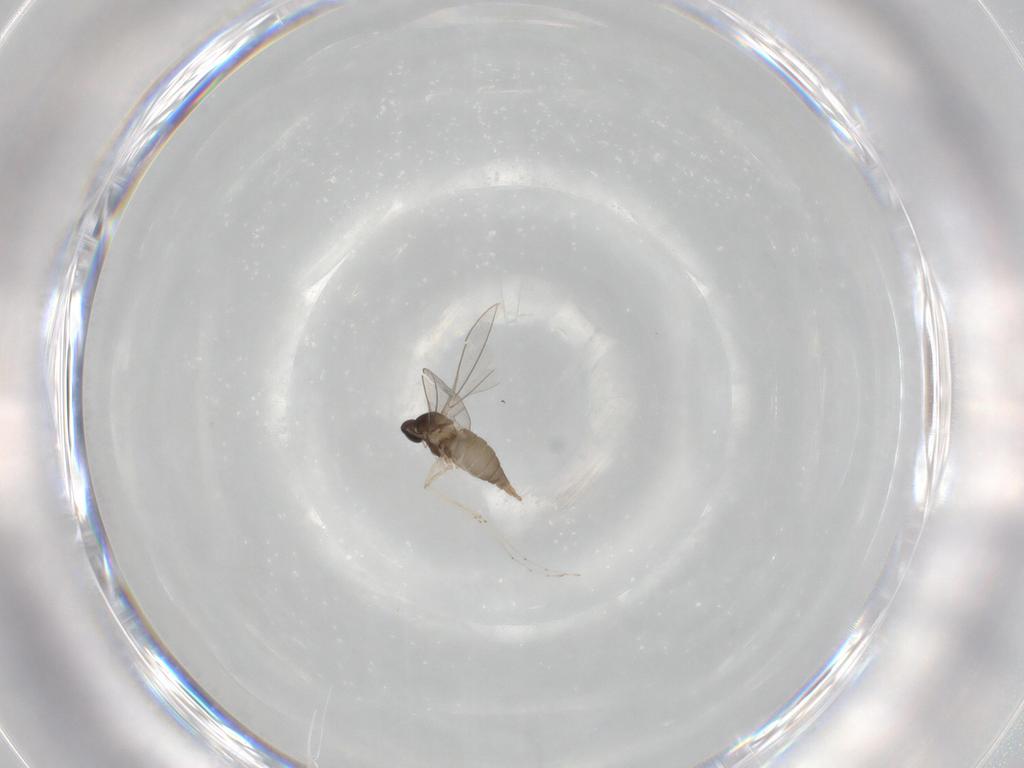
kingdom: Animalia
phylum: Arthropoda
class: Insecta
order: Diptera
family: Cecidomyiidae
